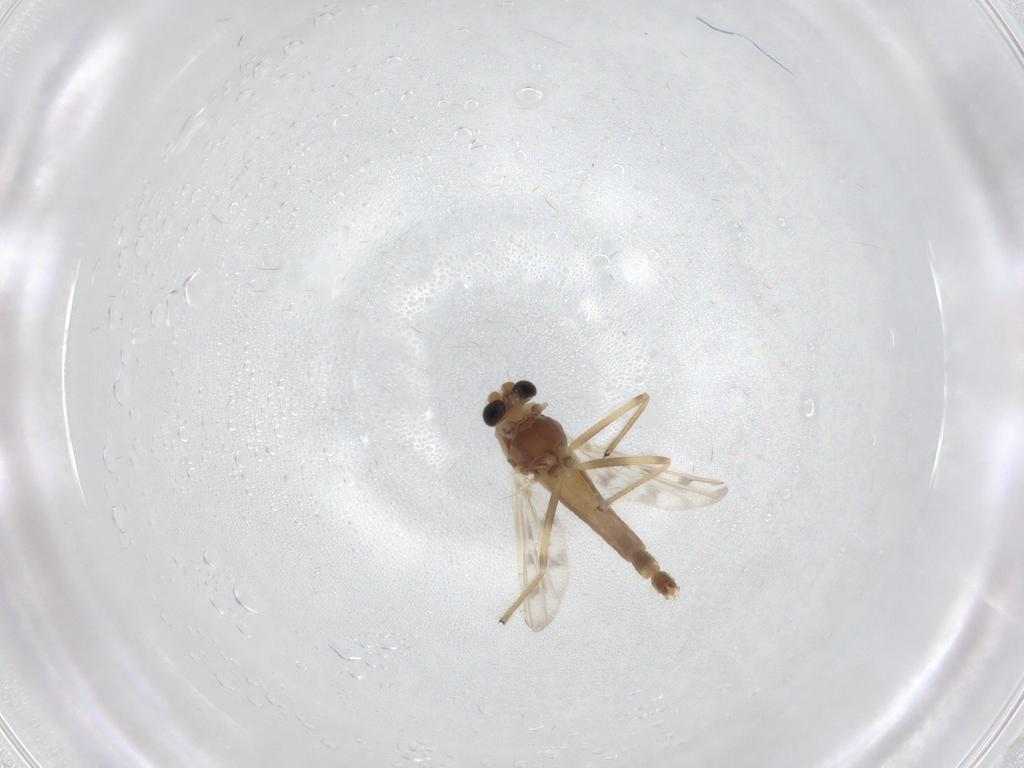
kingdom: Animalia
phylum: Arthropoda
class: Insecta
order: Diptera
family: Chironomidae
